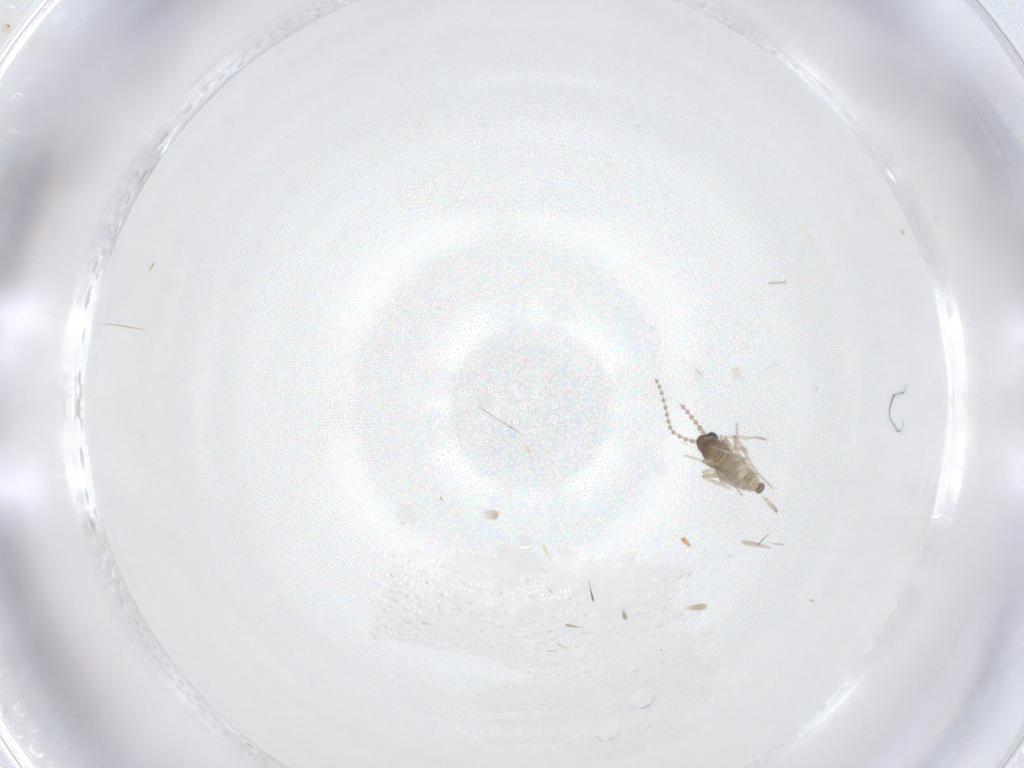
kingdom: Animalia
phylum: Arthropoda
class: Insecta
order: Diptera
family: Cecidomyiidae
